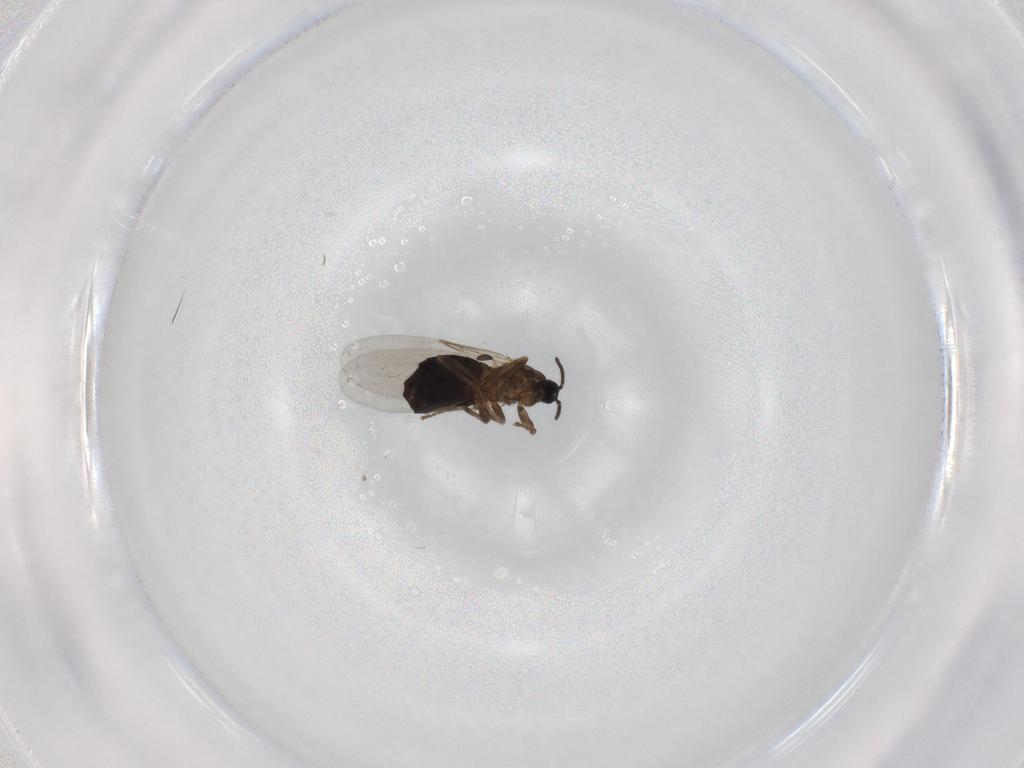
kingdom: Animalia
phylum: Arthropoda
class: Insecta
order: Diptera
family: Scatopsidae
